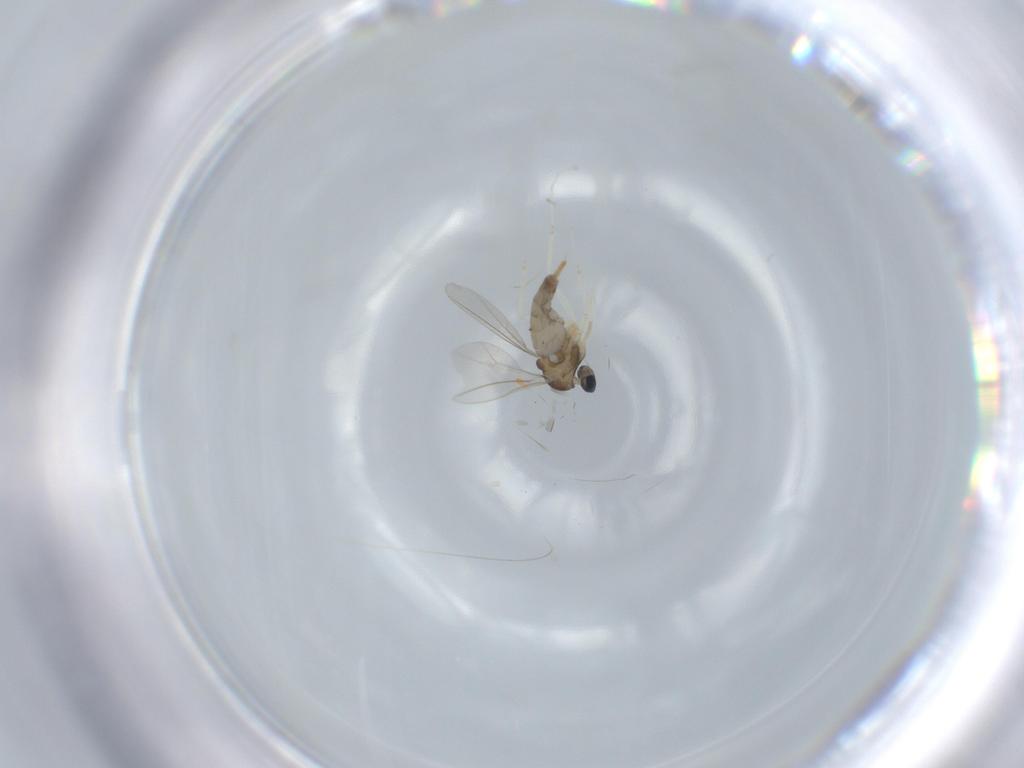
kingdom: Animalia
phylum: Arthropoda
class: Insecta
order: Diptera
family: Cecidomyiidae
